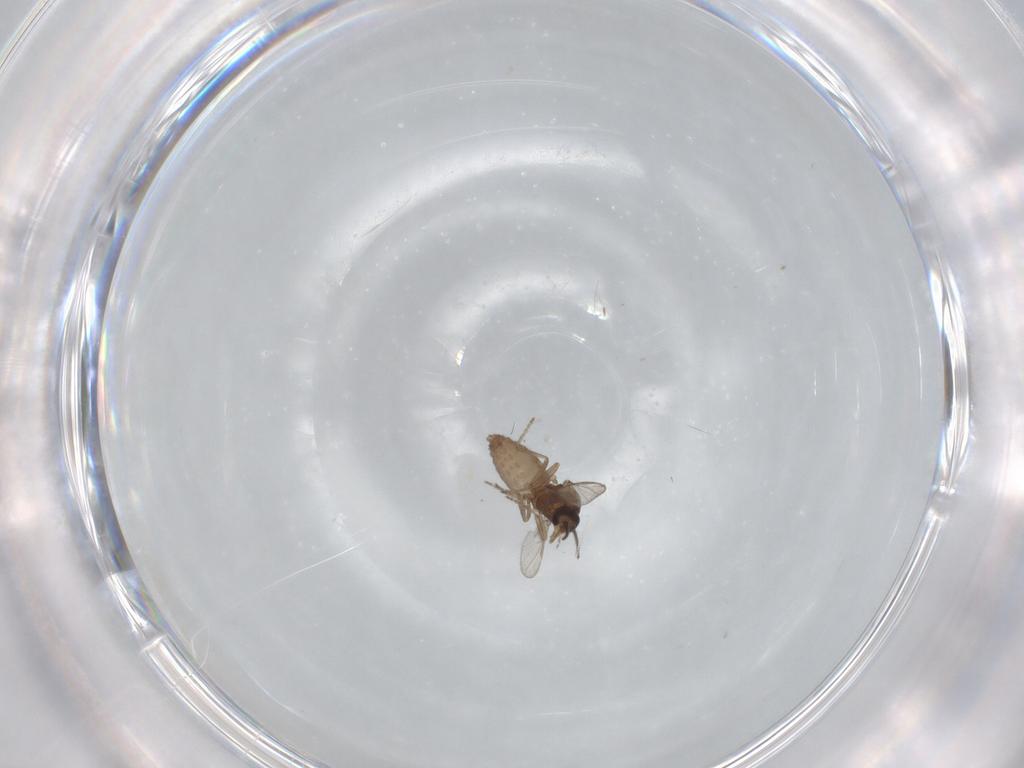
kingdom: Animalia
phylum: Arthropoda
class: Insecta
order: Diptera
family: Ceratopogonidae
